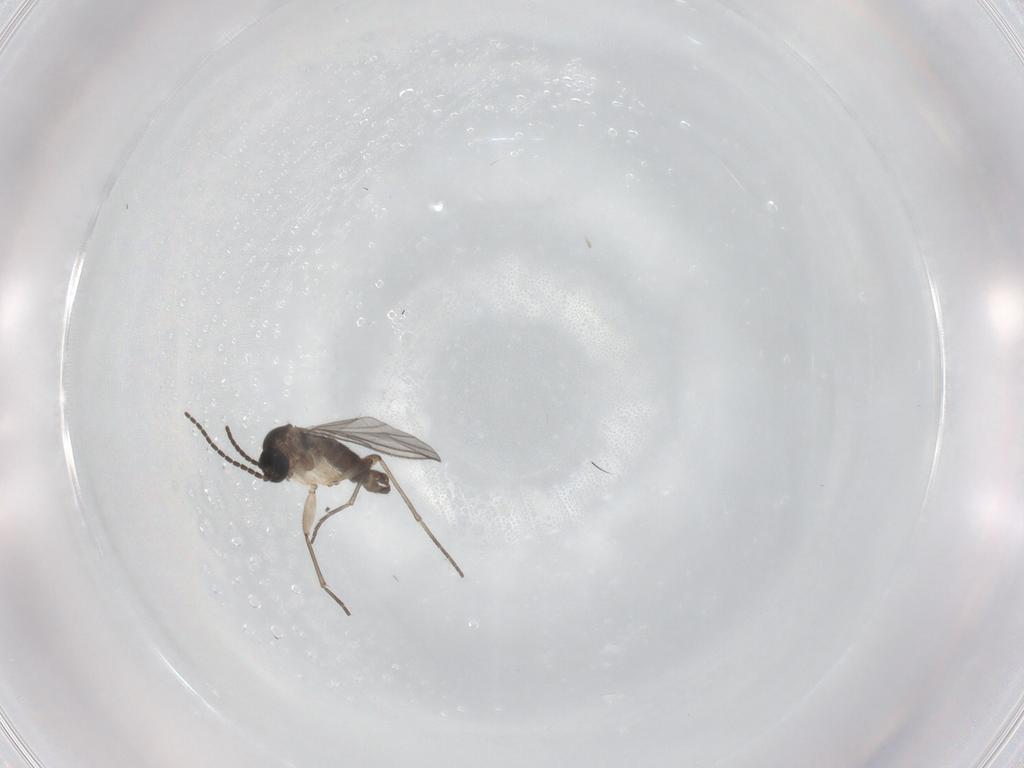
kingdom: Animalia
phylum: Arthropoda
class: Insecta
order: Diptera
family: Sciaridae
